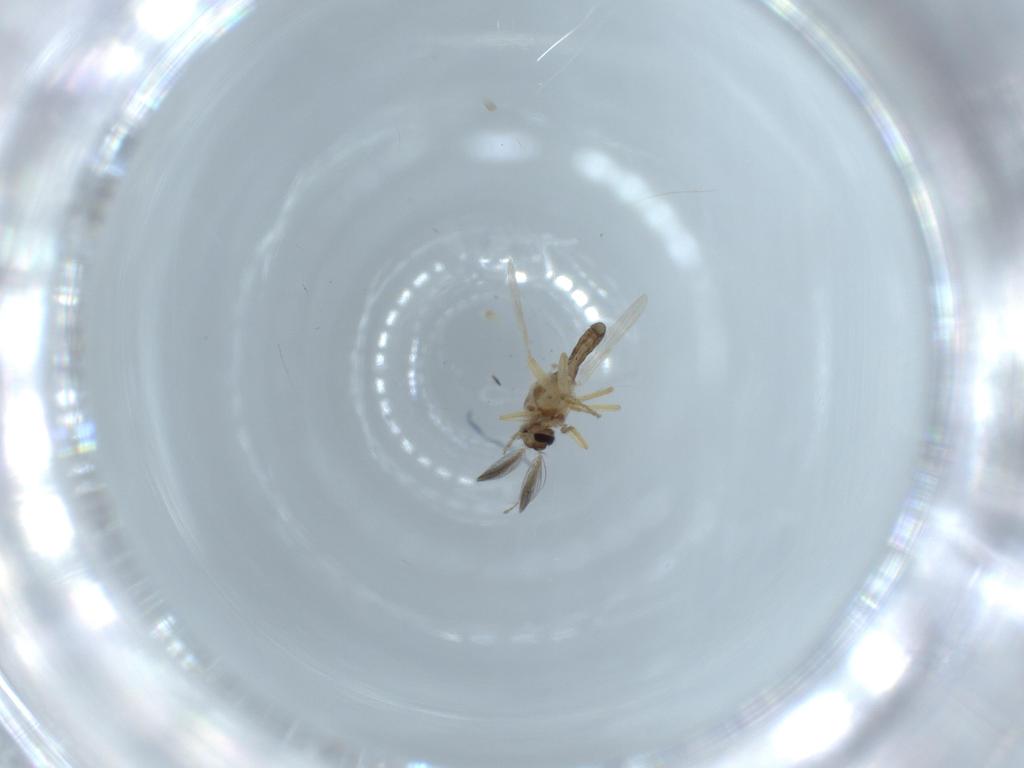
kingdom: Animalia
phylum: Arthropoda
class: Insecta
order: Diptera
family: Ceratopogonidae
